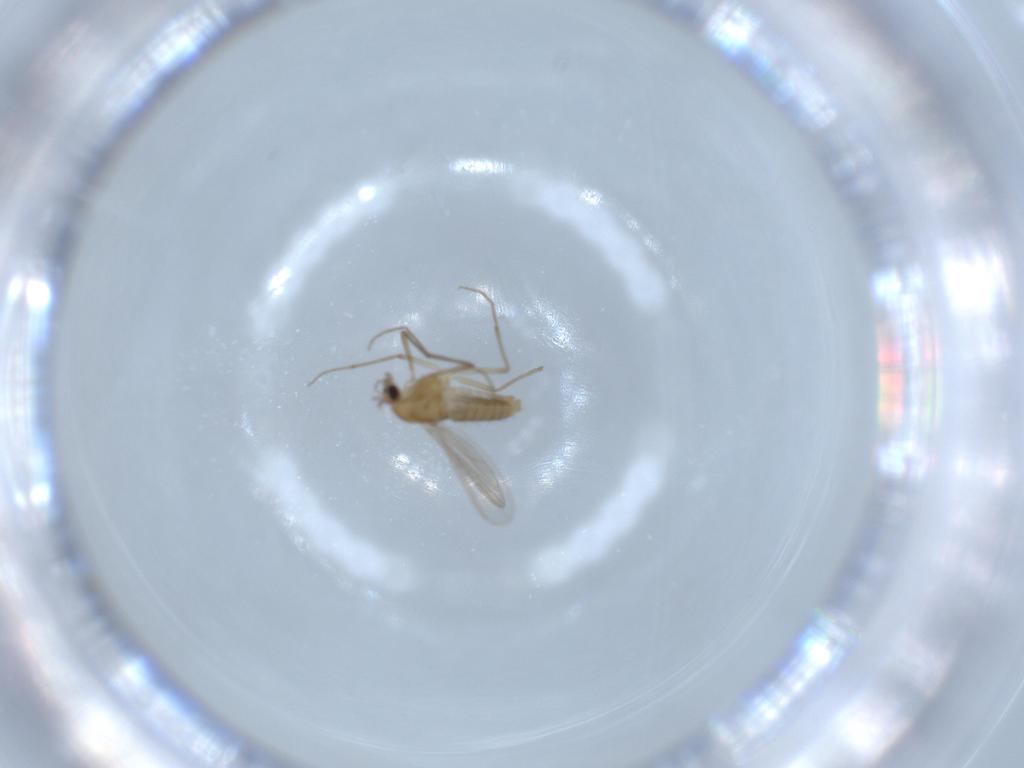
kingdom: Animalia
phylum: Arthropoda
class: Insecta
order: Diptera
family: Chironomidae
